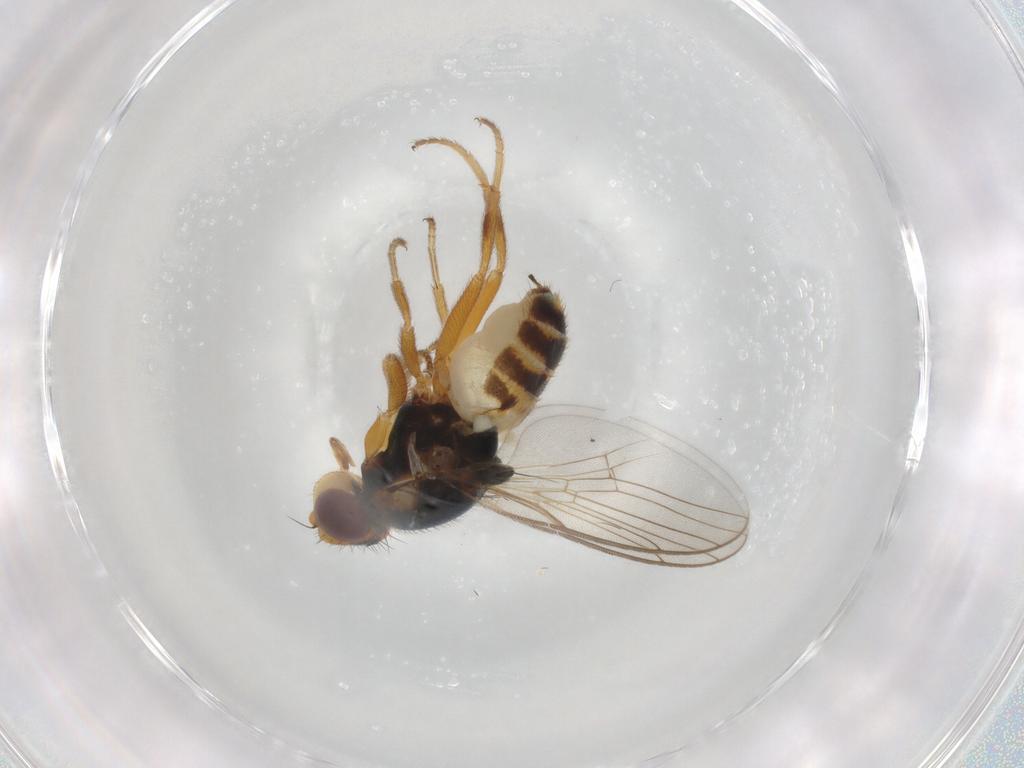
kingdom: Animalia
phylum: Arthropoda
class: Insecta
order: Diptera
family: Chloropidae
